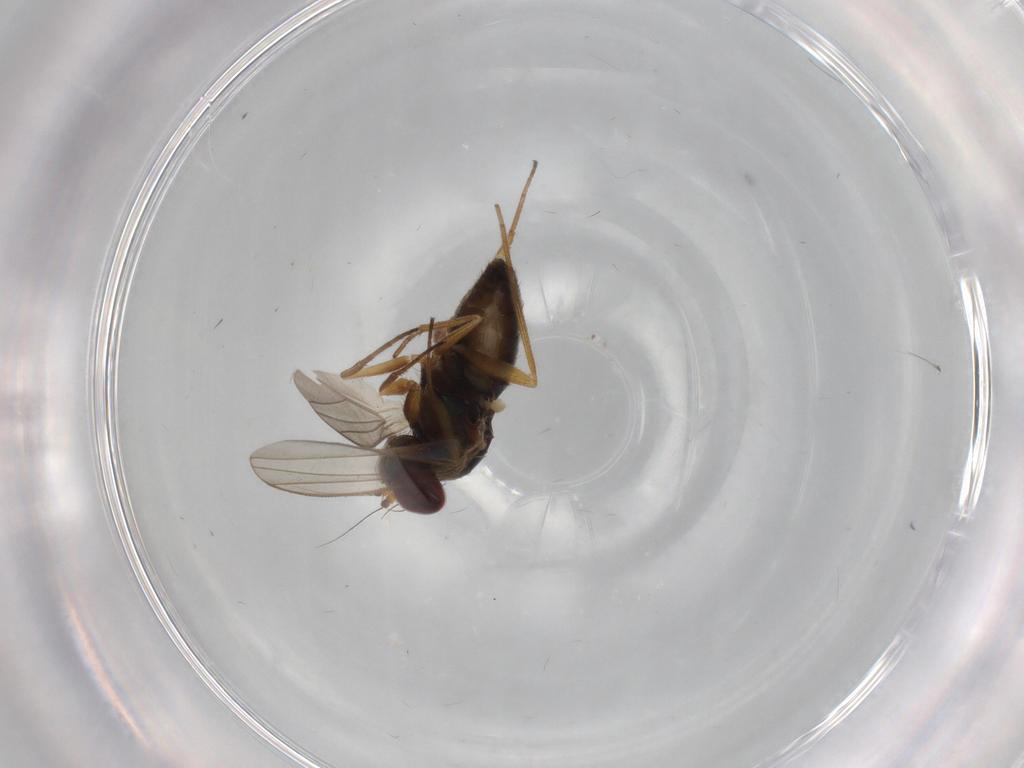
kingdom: Animalia
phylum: Arthropoda
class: Insecta
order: Diptera
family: Dolichopodidae
